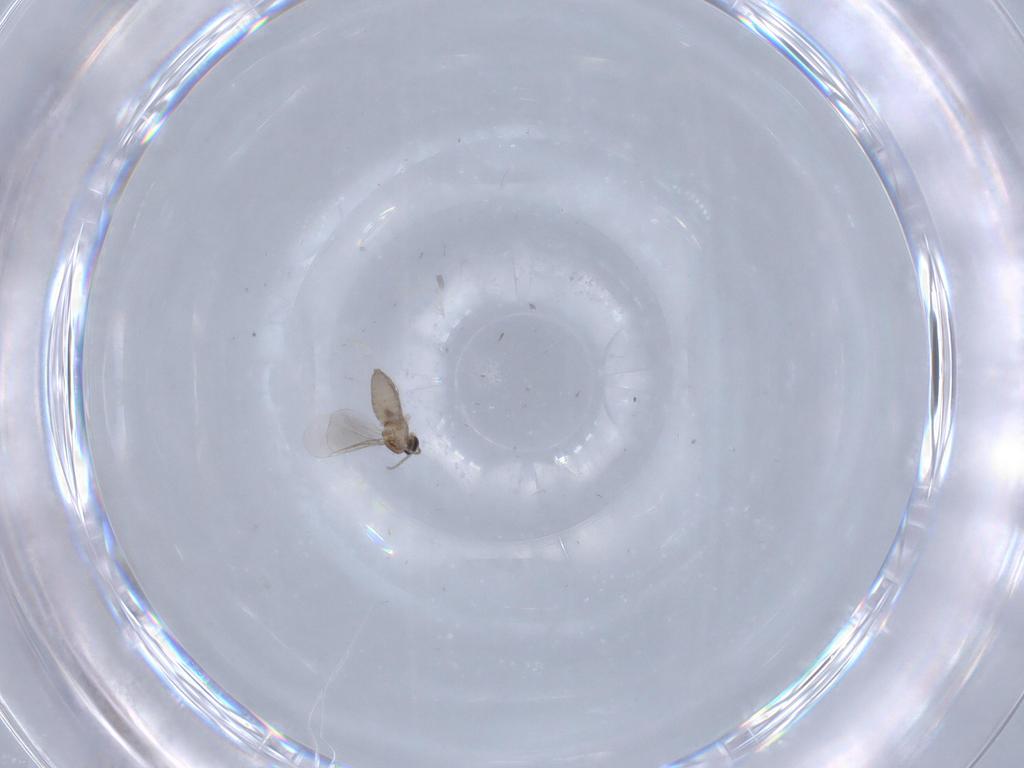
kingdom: Animalia
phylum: Arthropoda
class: Insecta
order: Diptera
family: Cecidomyiidae
